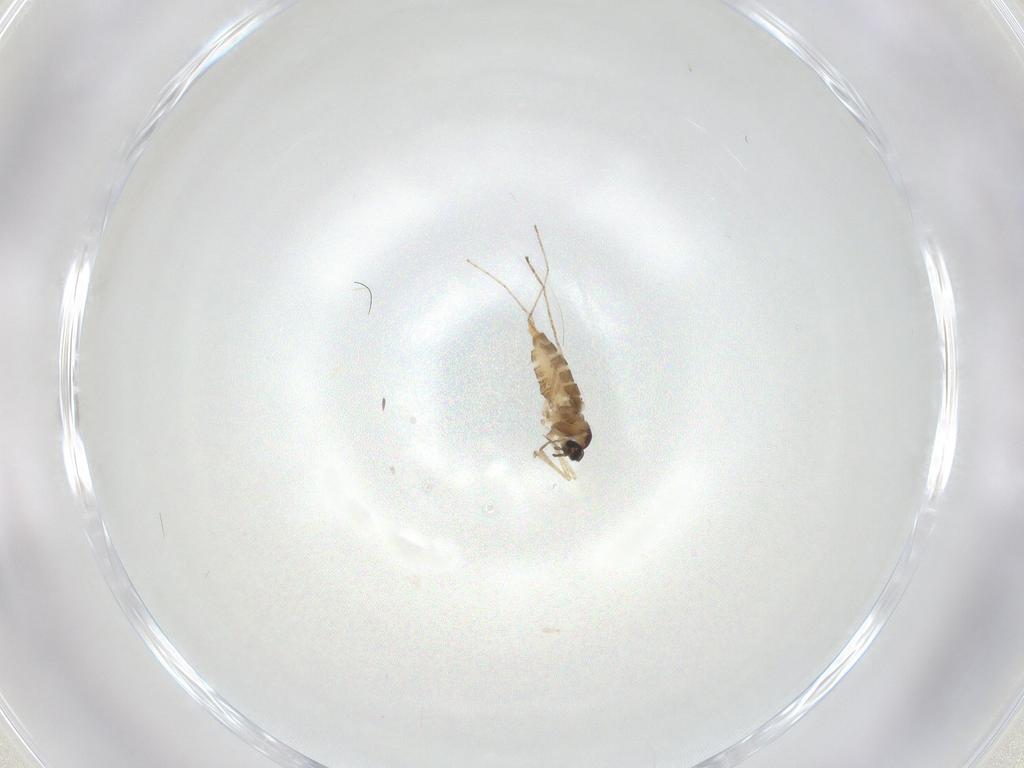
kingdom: Animalia
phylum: Arthropoda
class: Insecta
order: Diptera
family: Cecidomyiidae
